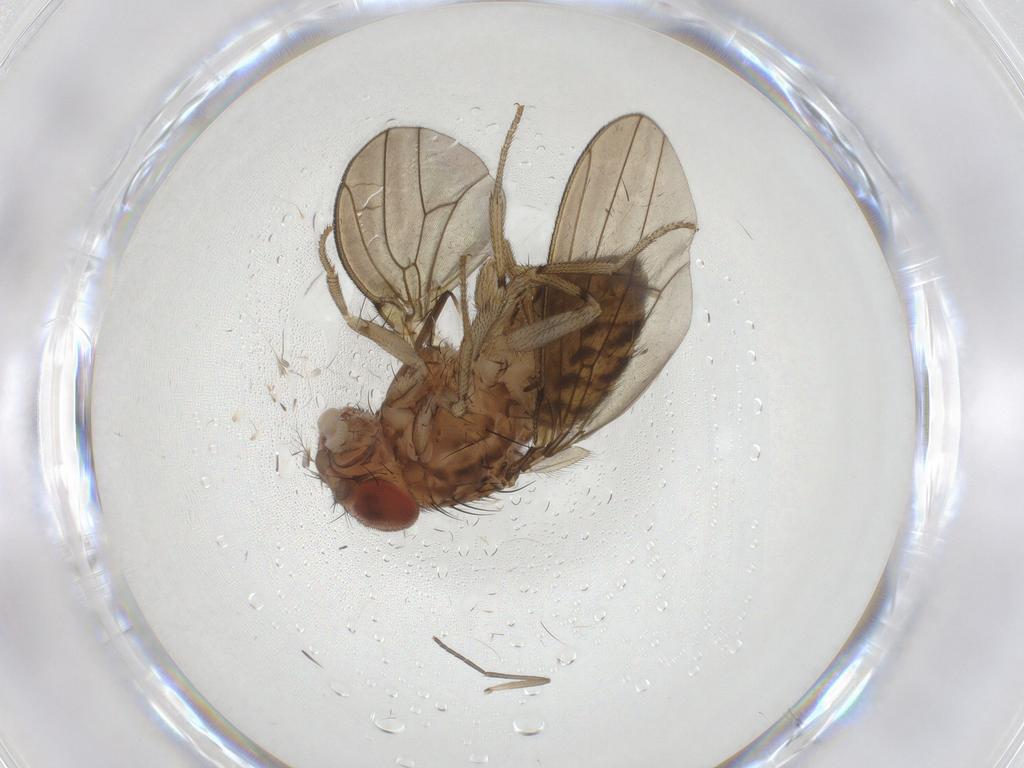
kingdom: Animalia
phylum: Arthropoda
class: Insecta
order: Diptera
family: Drosophilidae
